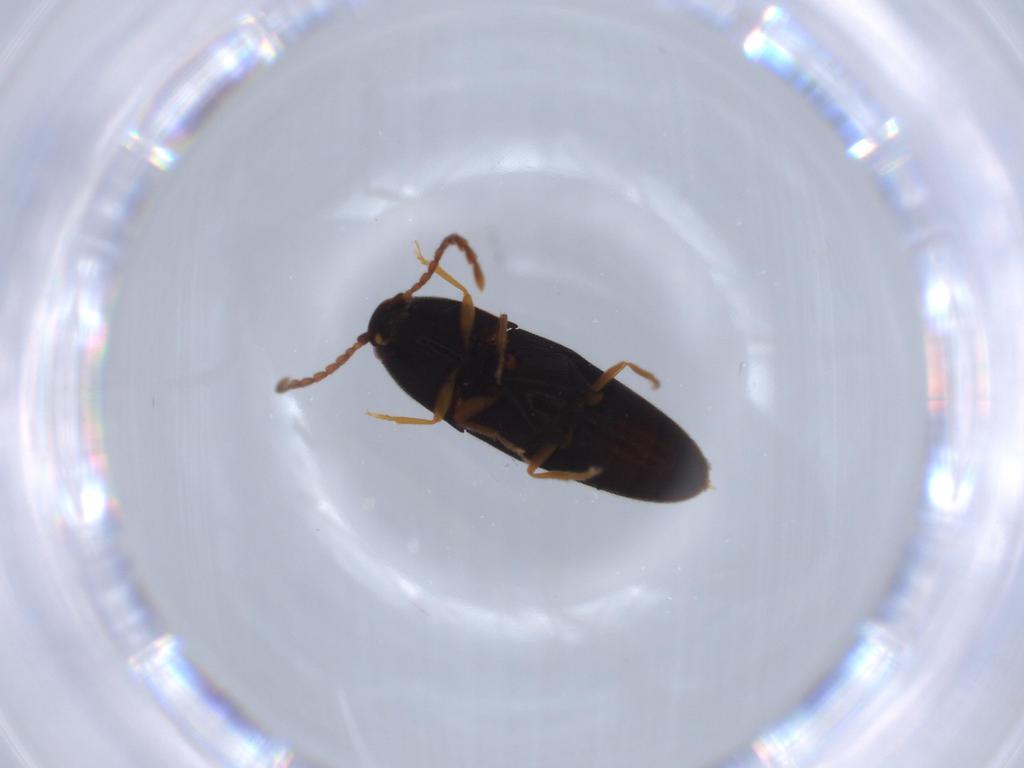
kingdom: Animalia
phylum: Arthropoda
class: Insecta
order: Coleoptera
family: Elateridae
